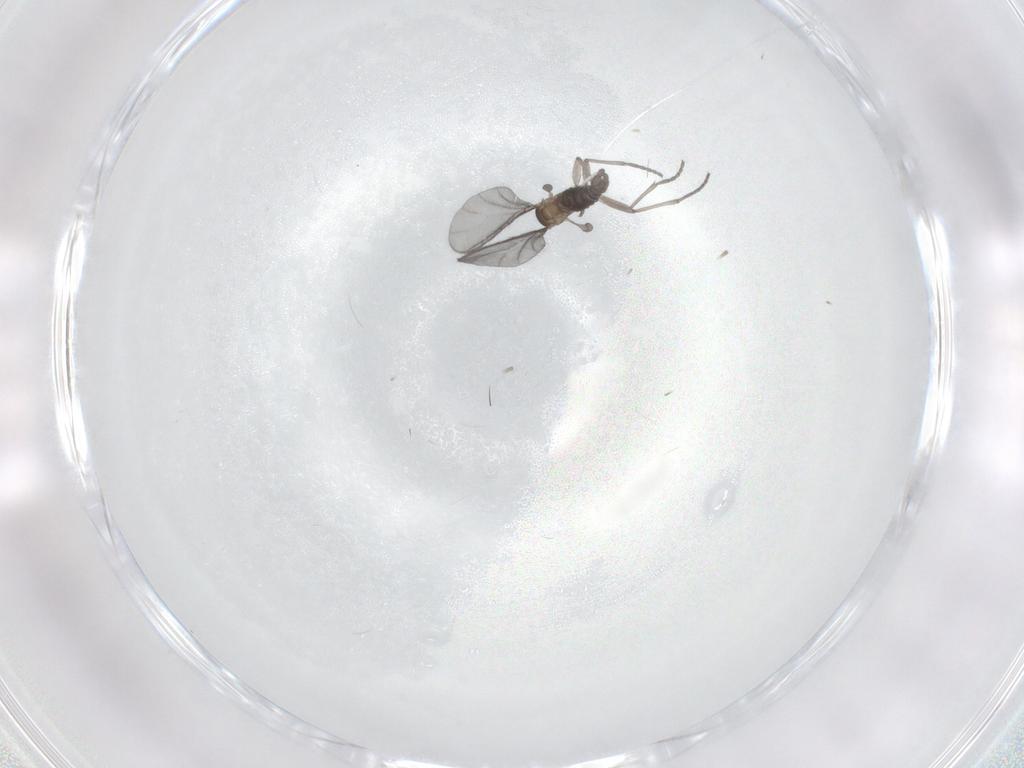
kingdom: Animalia
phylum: Arthropoda
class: Insecta
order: Diptera
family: Sciaridae
